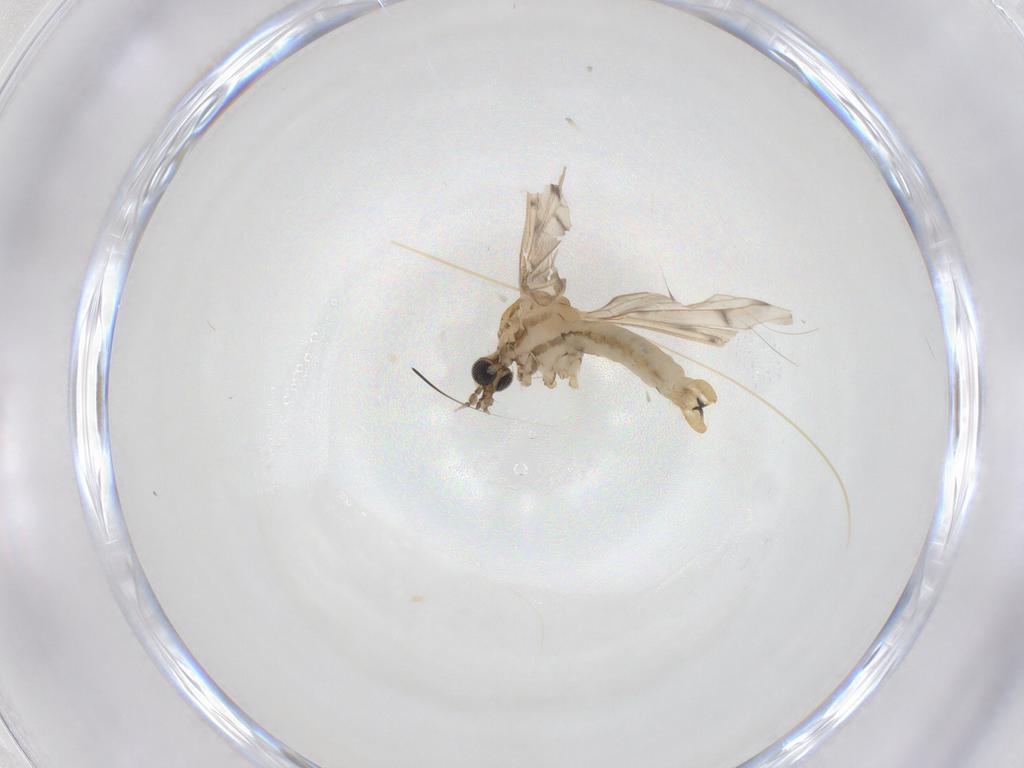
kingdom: Animalia
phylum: Arthropoda
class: Insecta
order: Diptera
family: Limoniidae
